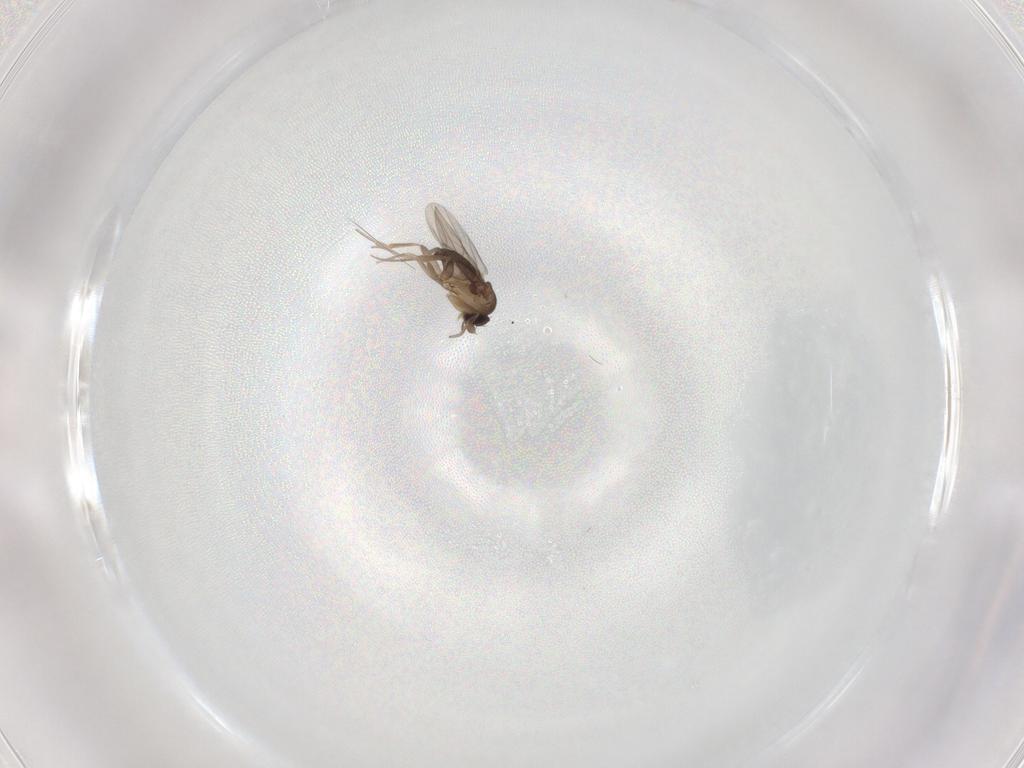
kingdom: Animalia
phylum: Arthropoda
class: Insecta
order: Diptera
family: Phoridae
